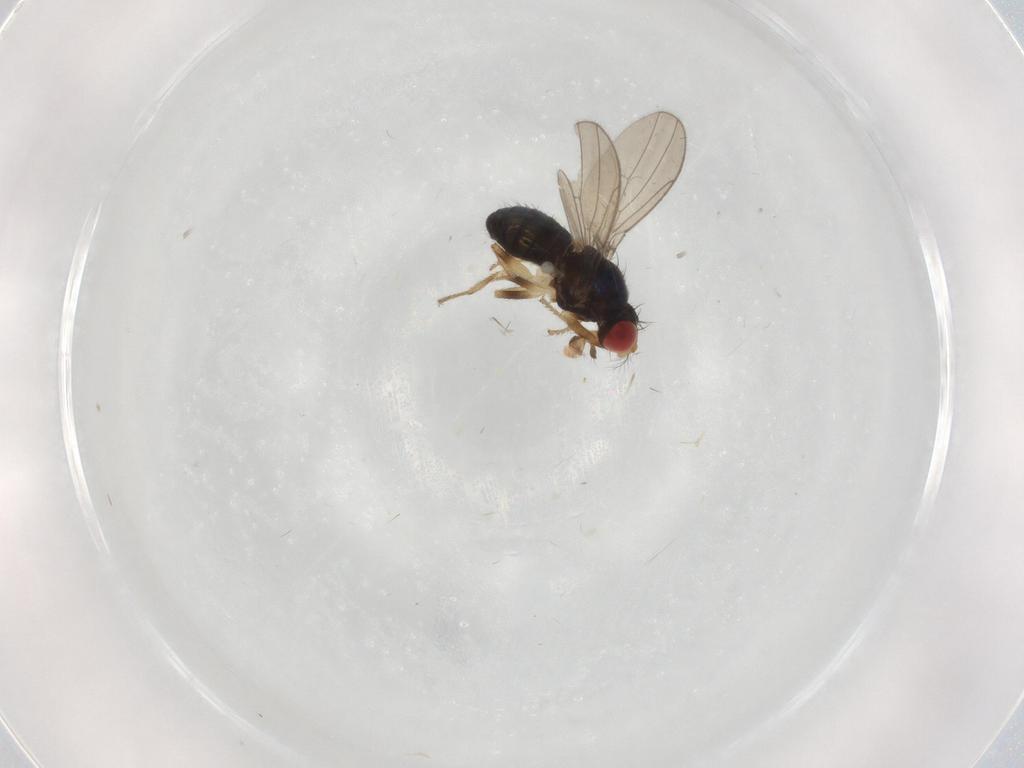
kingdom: Animalia
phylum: Arthropoda
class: Insecta
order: Diptera
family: Drosophilidae
